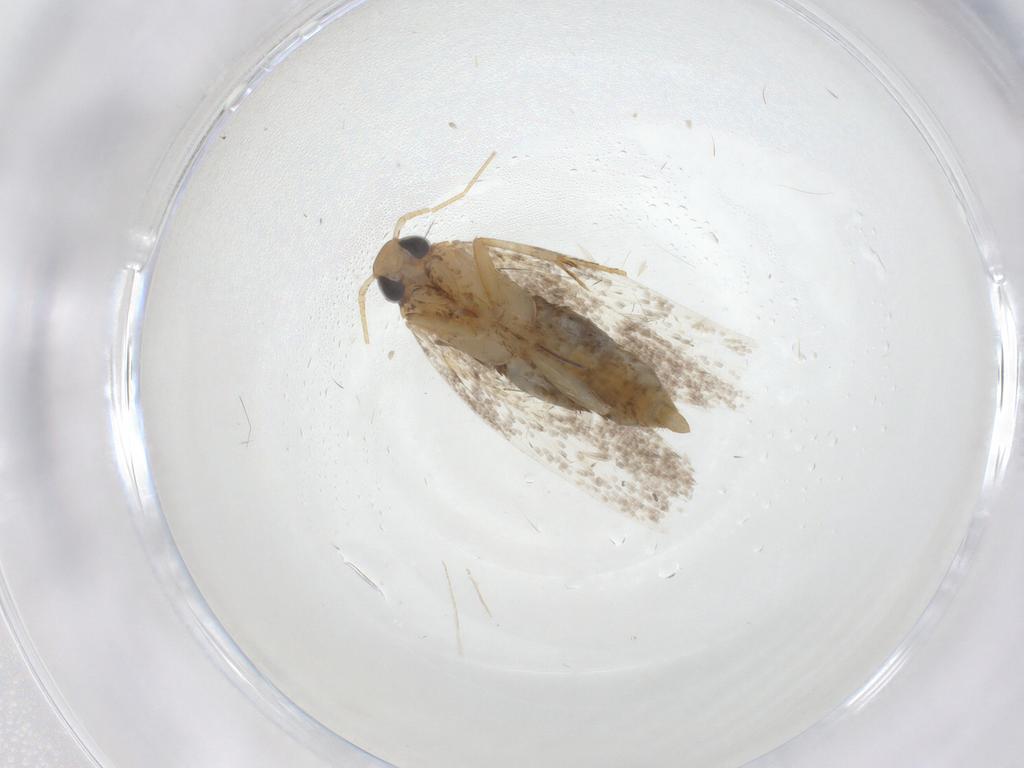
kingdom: Animalia
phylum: Arthropoda
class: Insecta
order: Lepidoptera
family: Oecophoridae
